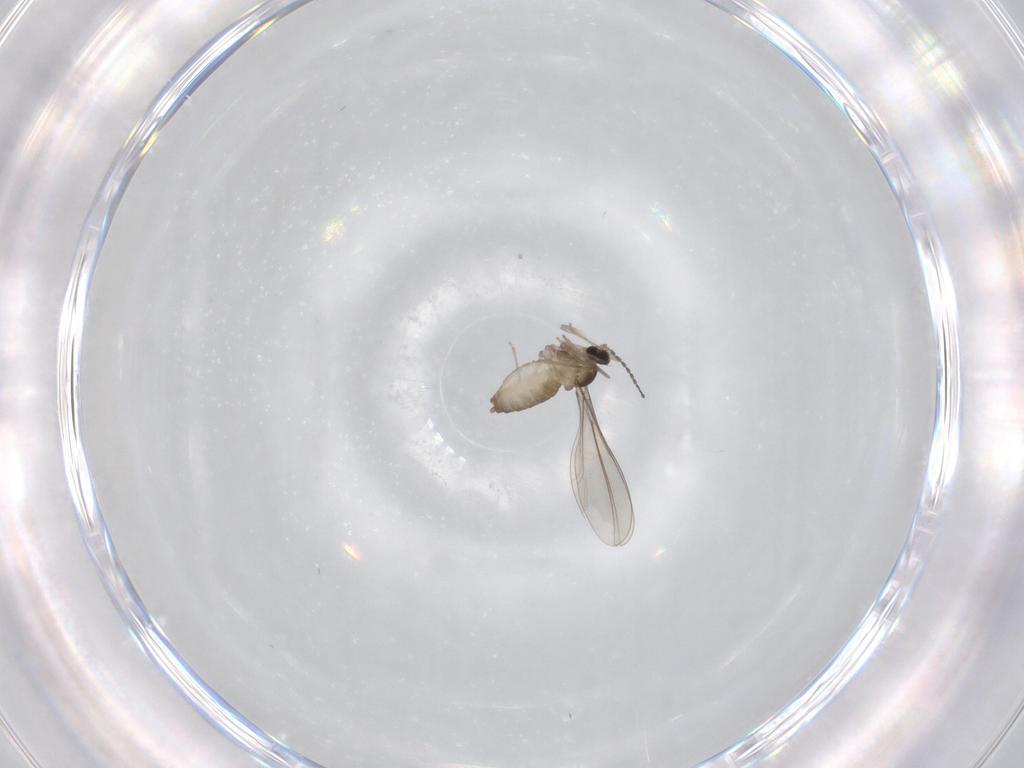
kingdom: Animalia
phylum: Arthropoda
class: Insecta
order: Diptera
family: Cecidomyiidae
